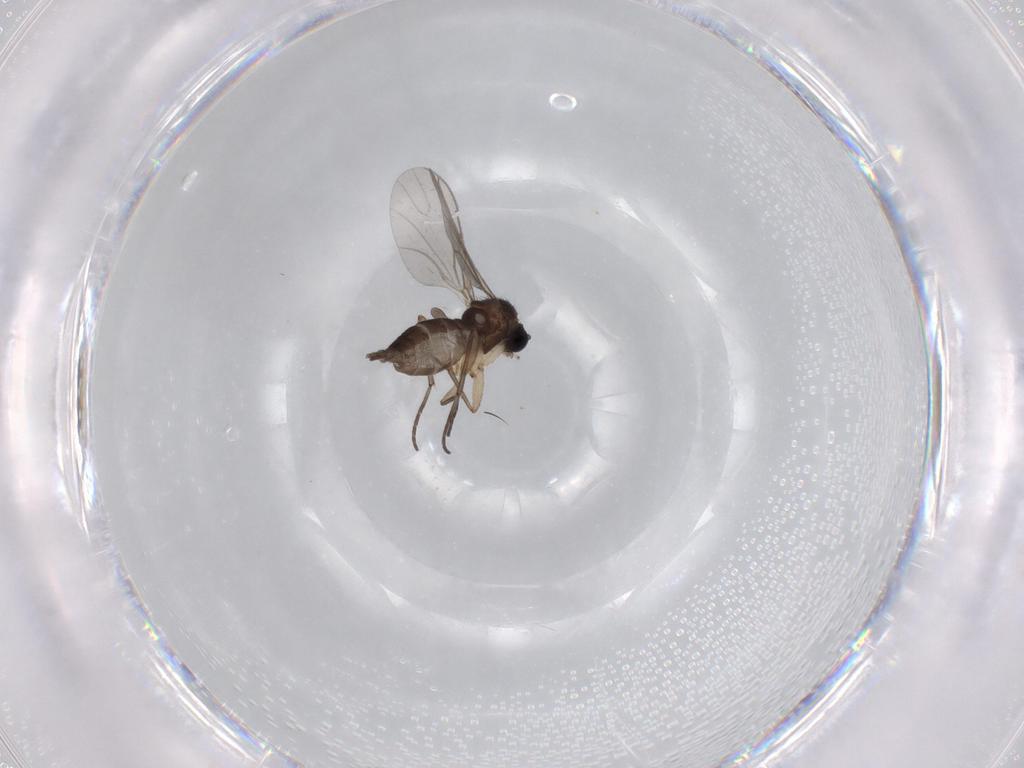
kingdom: Animalia
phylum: Arthropoda
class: Insecta
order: Diptera
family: Sciaridae
